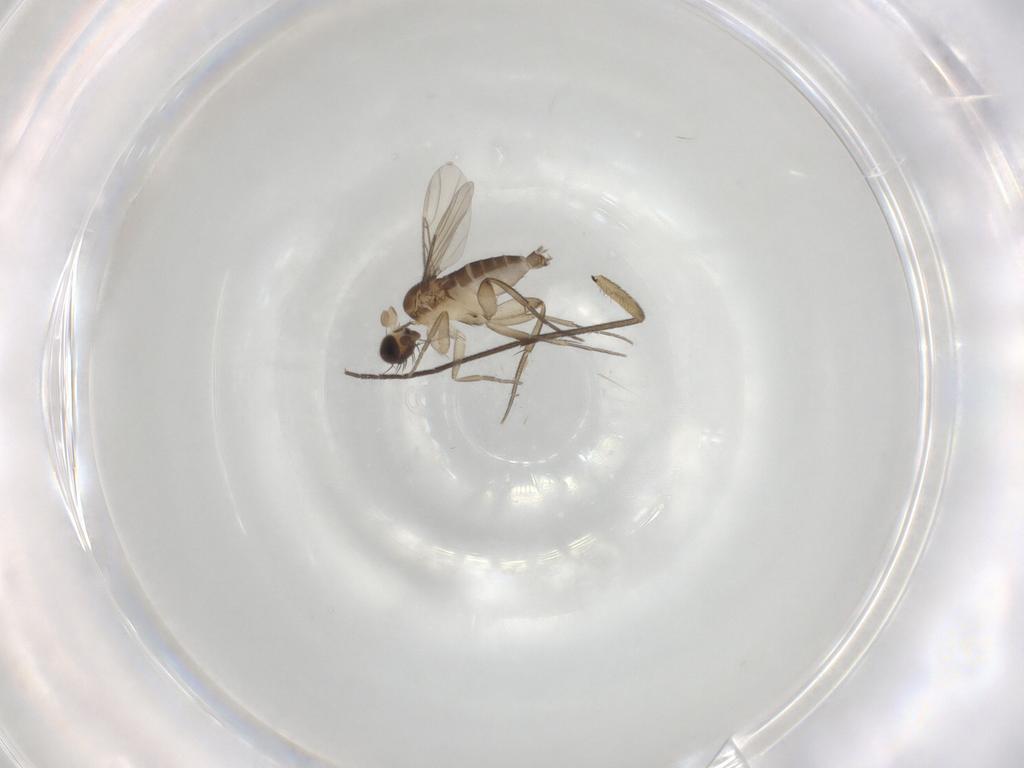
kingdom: Animalia
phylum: Arthropoda
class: Insecta
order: Diptera
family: Phoridae
